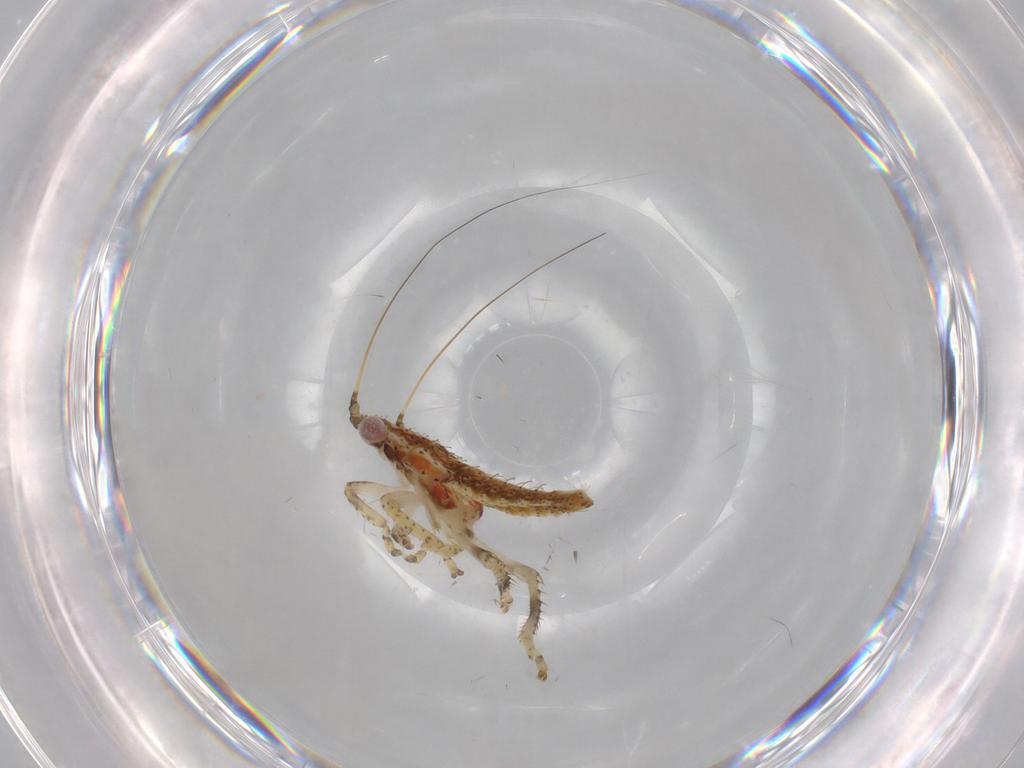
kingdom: Animalia
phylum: Arthropoda
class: Insecta
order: Hemiptera
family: Cicadellidae
